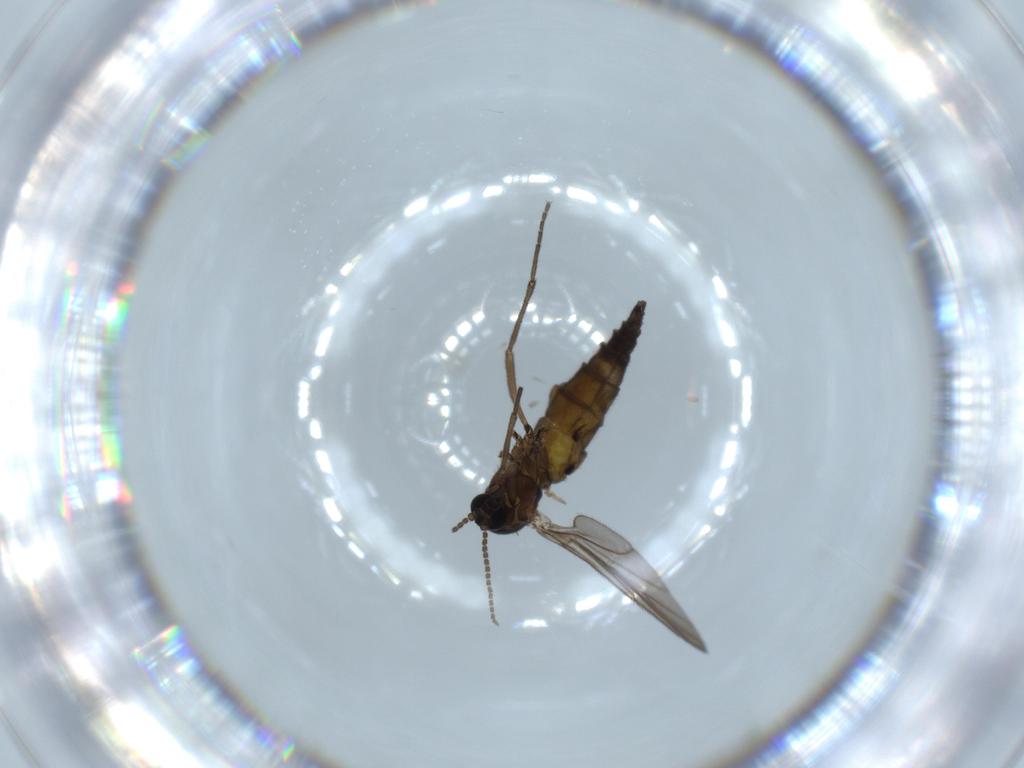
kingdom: Animalia
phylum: Arthropoda
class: Insecta
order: Diptera
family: Sciaridae
